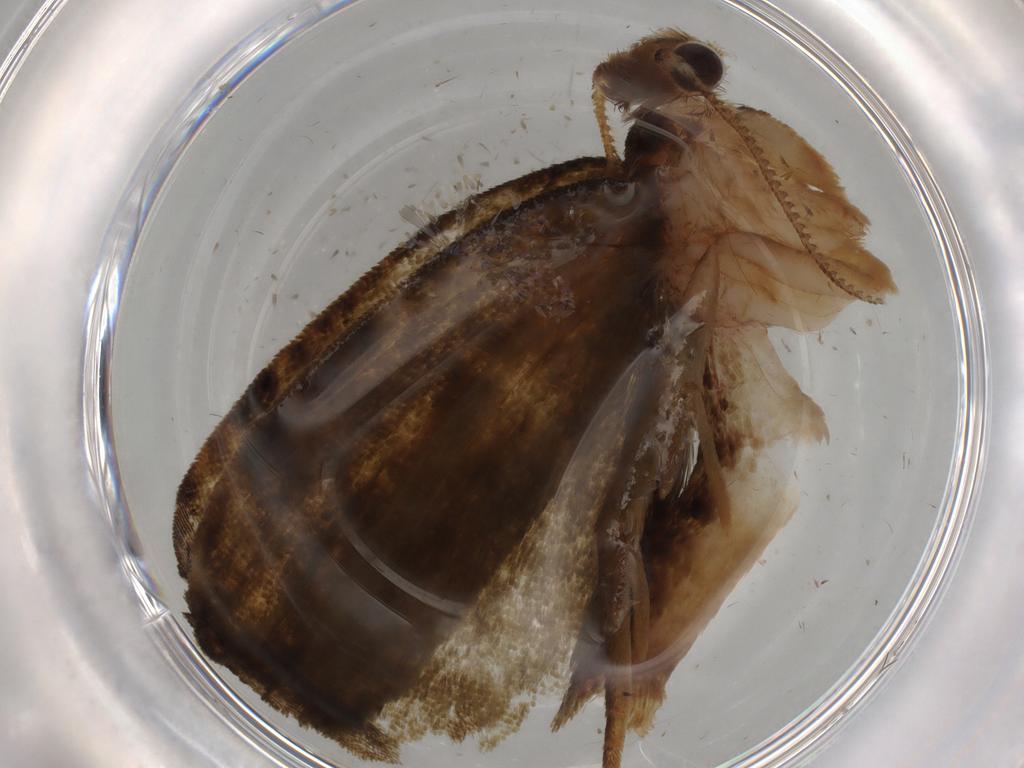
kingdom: Animalia
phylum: Arthropoda
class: Insecta
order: Lepidoptera
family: Geometridae
